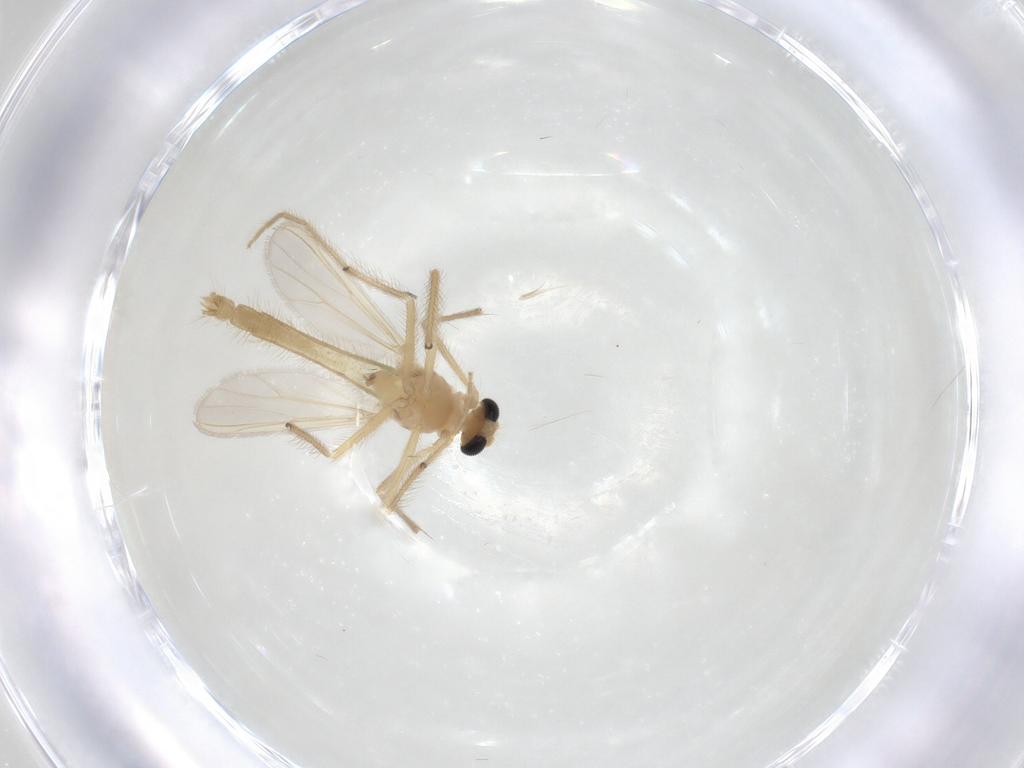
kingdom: Animalia
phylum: Arthropoda
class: Insecta
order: Diptera
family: Chironomidae
